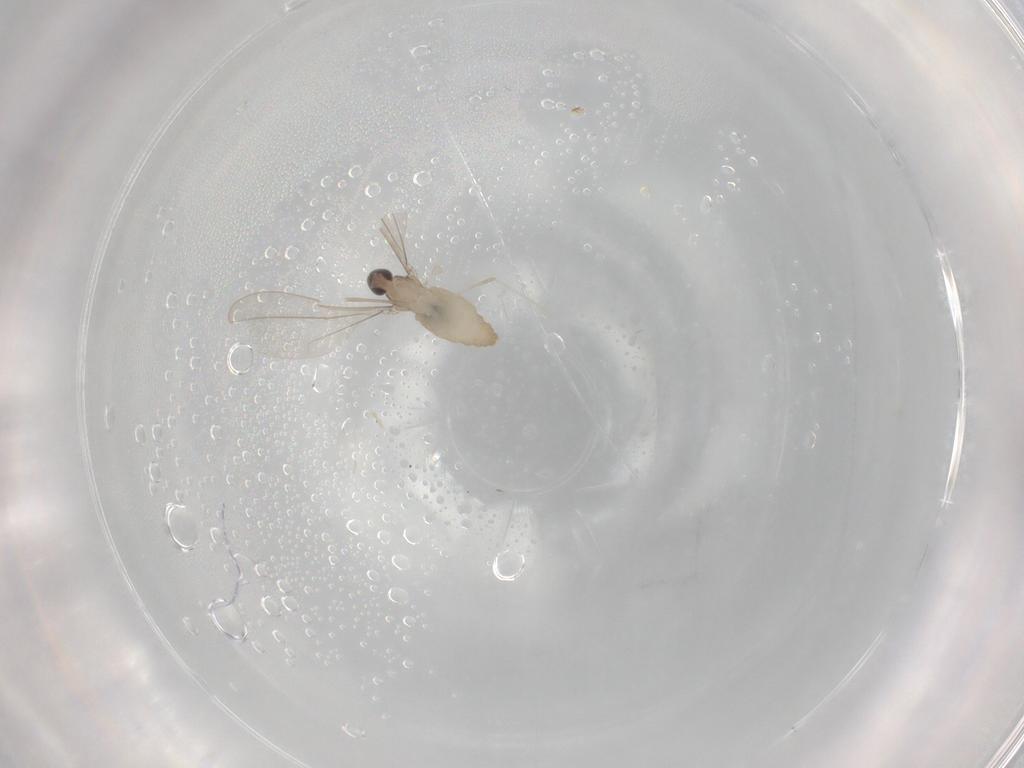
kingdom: Animalia
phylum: Arthropoda
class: Insecta
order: Diptera
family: Cecidomyiidae
